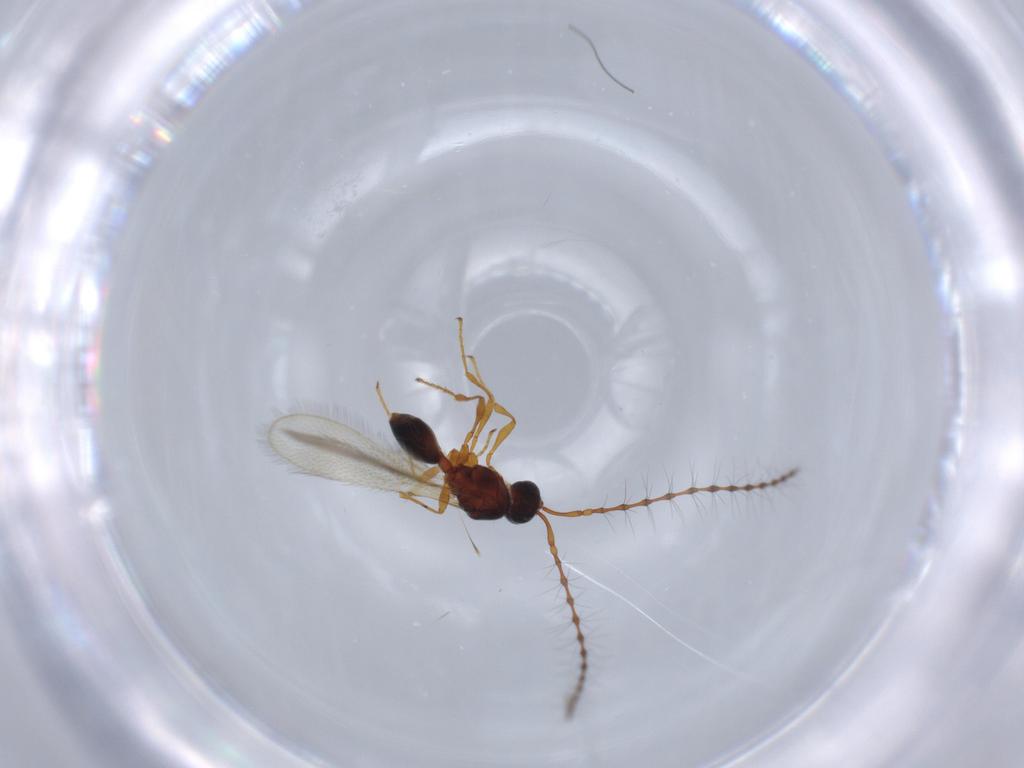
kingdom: Animalia
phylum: Arthropoda
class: Insecta
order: Hymenoptera
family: Diapriidae
